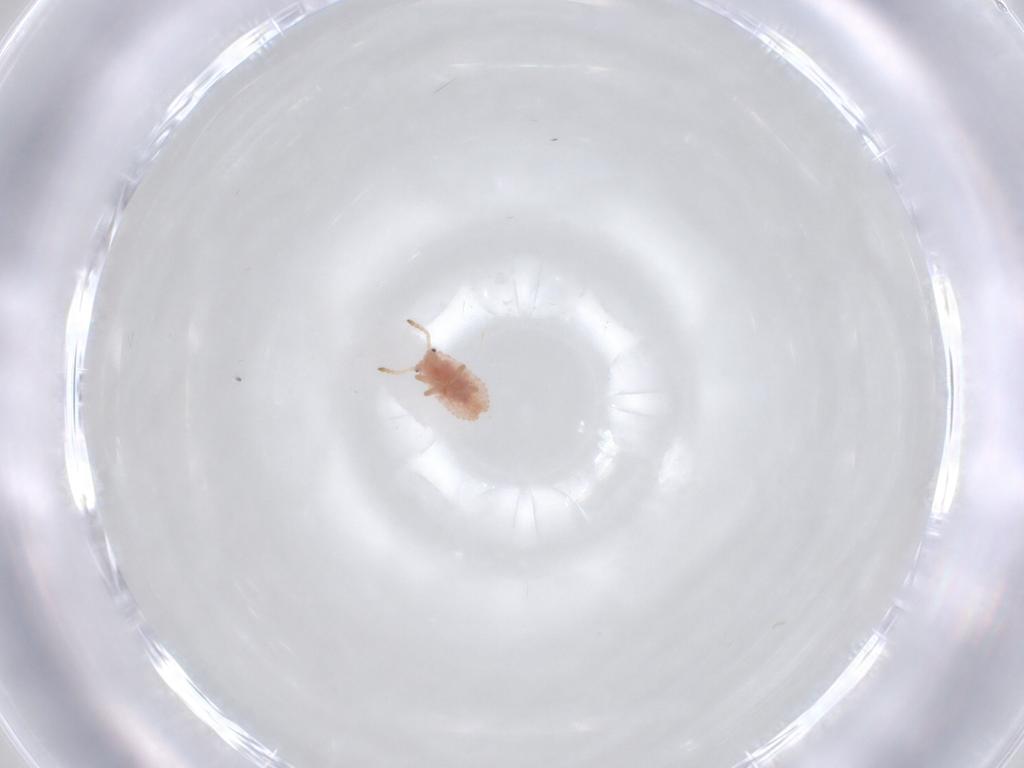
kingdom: Animalia
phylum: Arthropoda
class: Insecta
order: Hemiptera
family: Coccoidea_incertae_sedis
